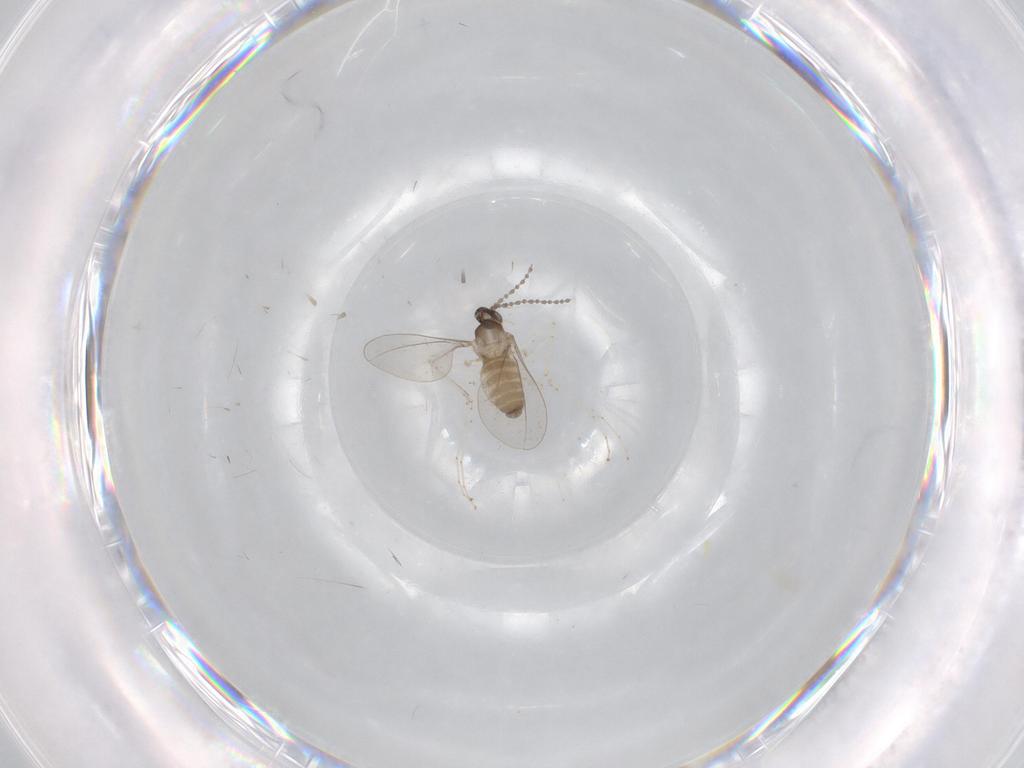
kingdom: Animalia
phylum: Arthropoda
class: Insecta
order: Diptera
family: Cecidomyiidae
